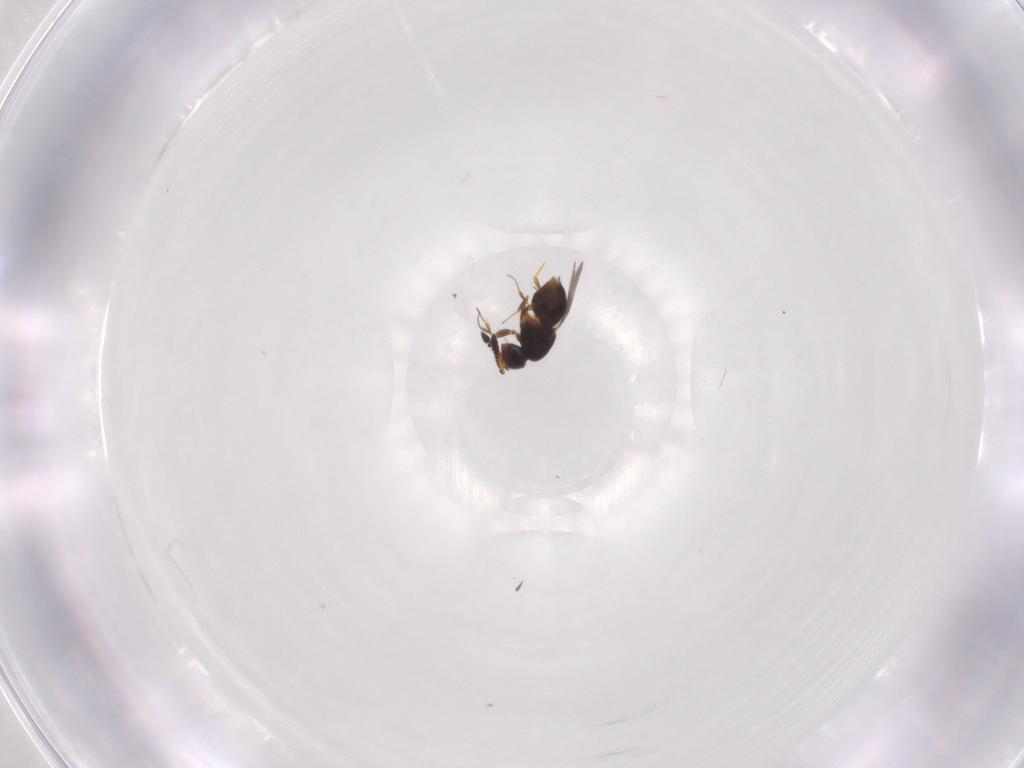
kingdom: Animalia
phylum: Arthropoda
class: Insecta
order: Hymenoptera
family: Ceraphronidae
